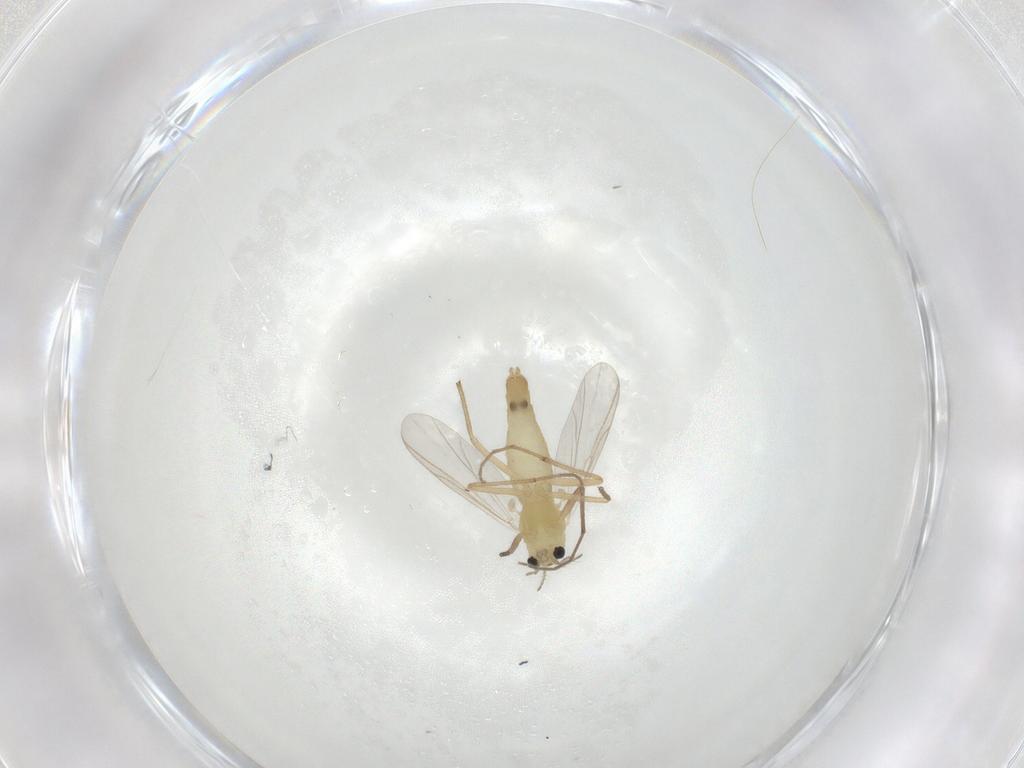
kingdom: Animalia
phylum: Arthropoda
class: Insecta
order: Diptera
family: Chironomidae
